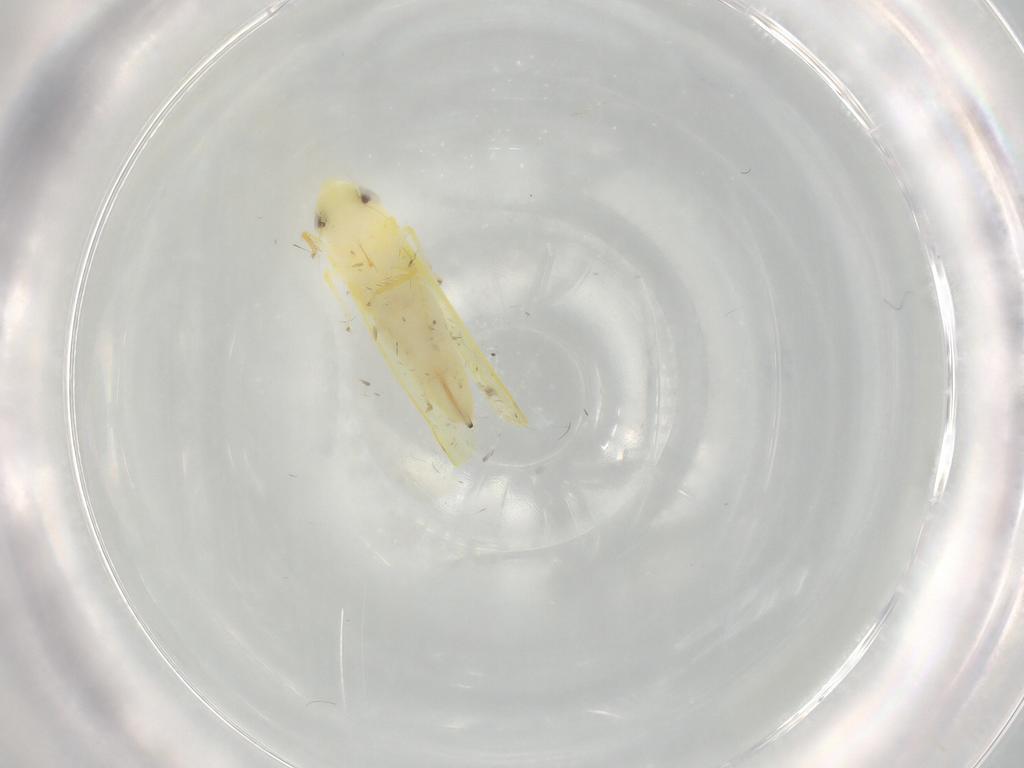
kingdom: Animalia
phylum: Arthropoda
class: Insecta
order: Hemiptera
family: Cicadellidae
